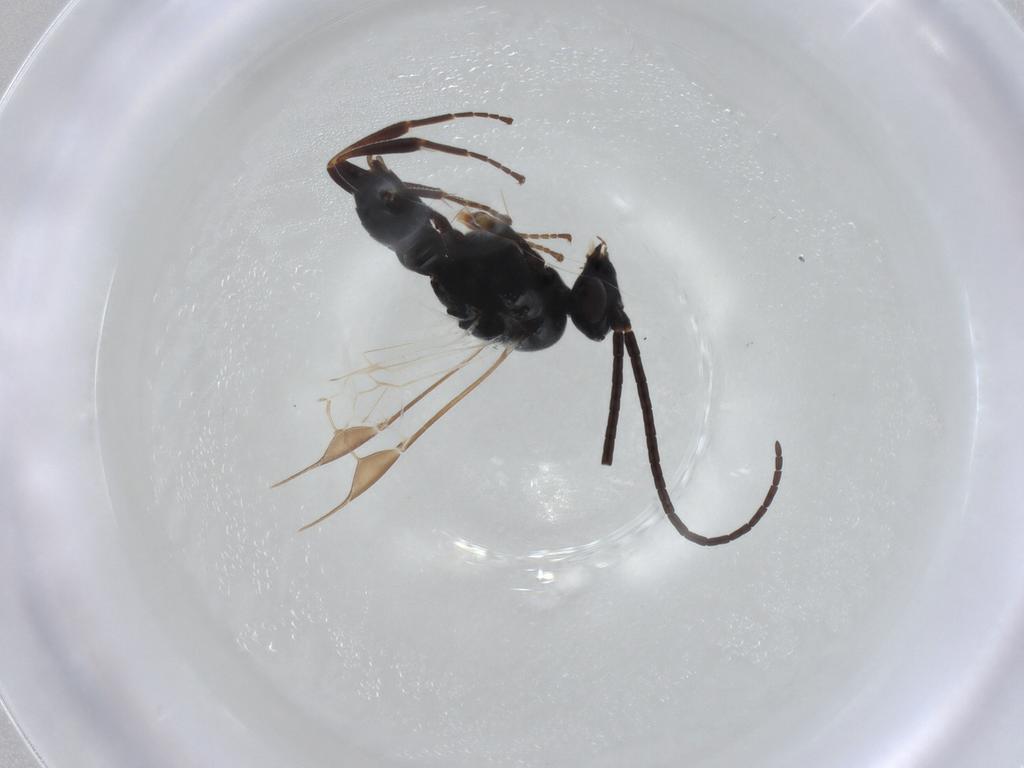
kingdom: Animalia
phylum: Arthropoda
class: Insecta
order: Hymenoptera
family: Braconidae
